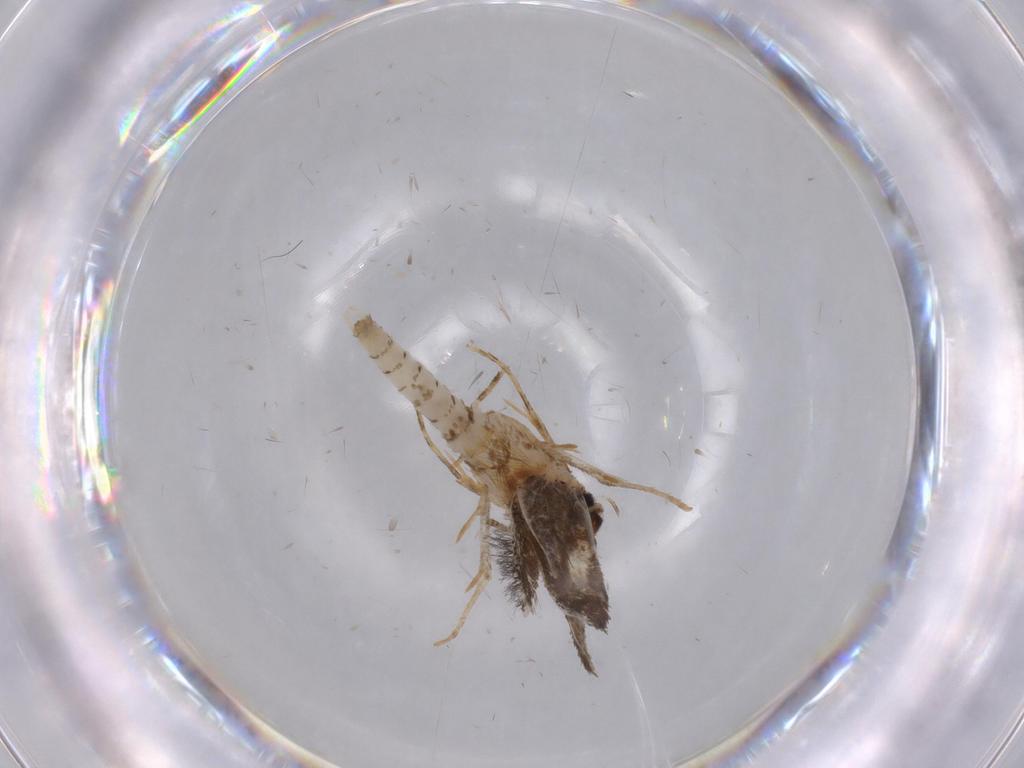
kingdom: Animalia
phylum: Arthropoda
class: Insecta
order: Lepidoptera
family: Tineidae
